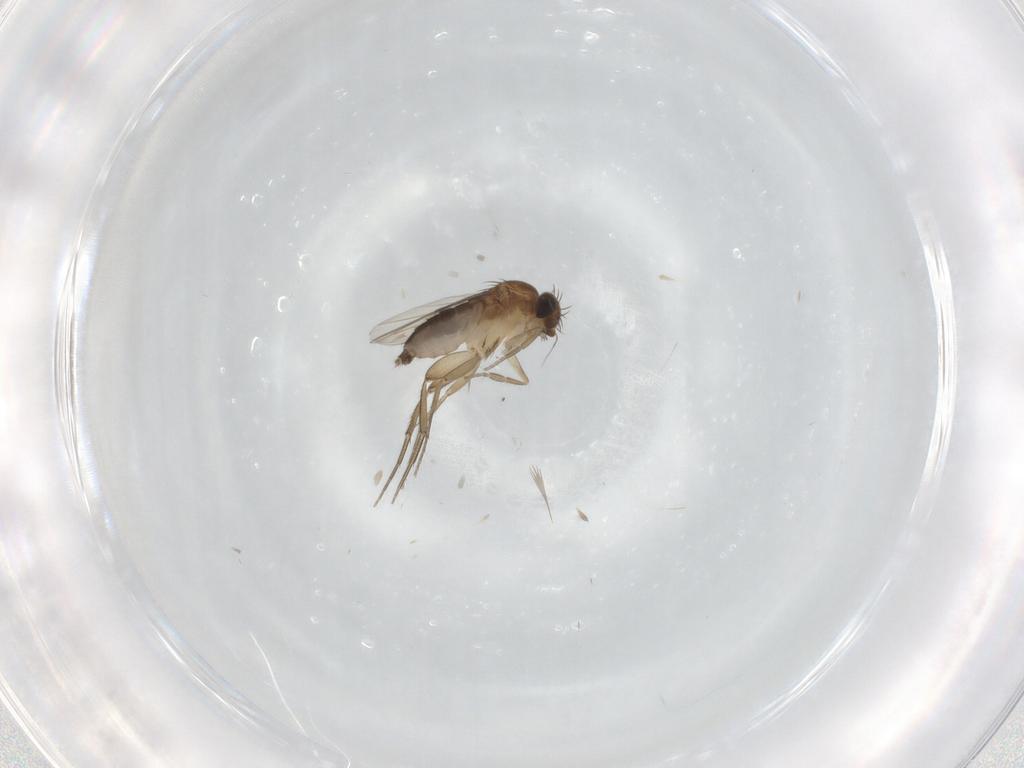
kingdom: Animalia
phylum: Arthropoda
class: Insecta
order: Diptera
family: Phoridae
